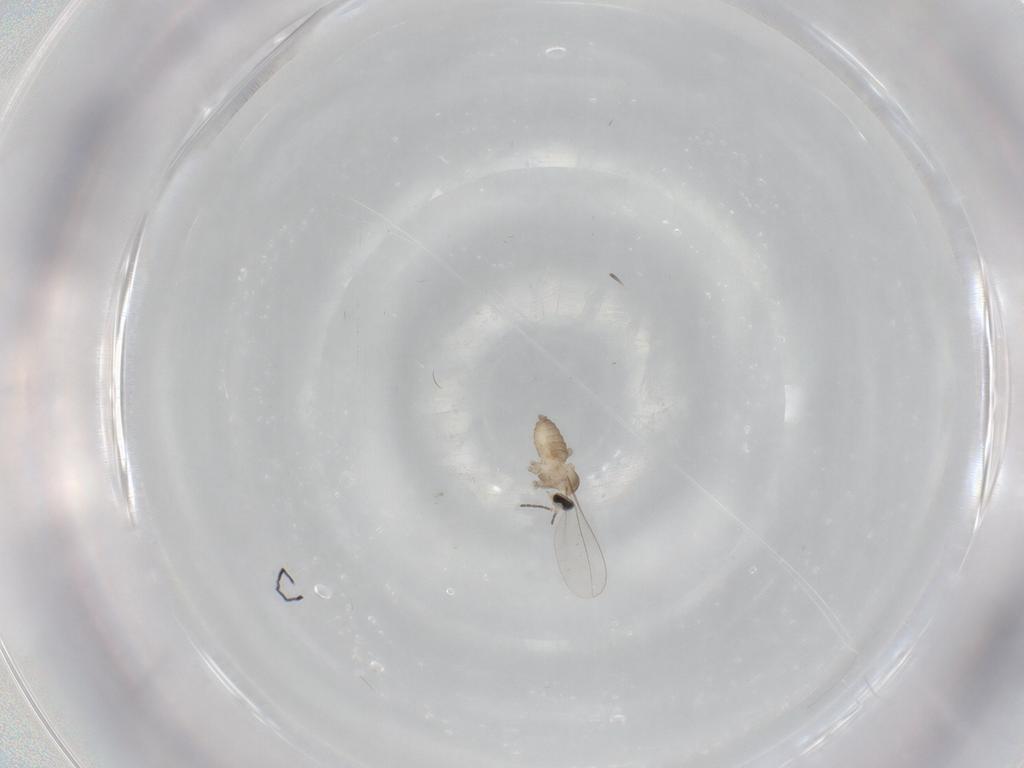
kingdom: Animalia
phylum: Arthropoda
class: Insecta
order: Diptera
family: Cecidomyiidae
